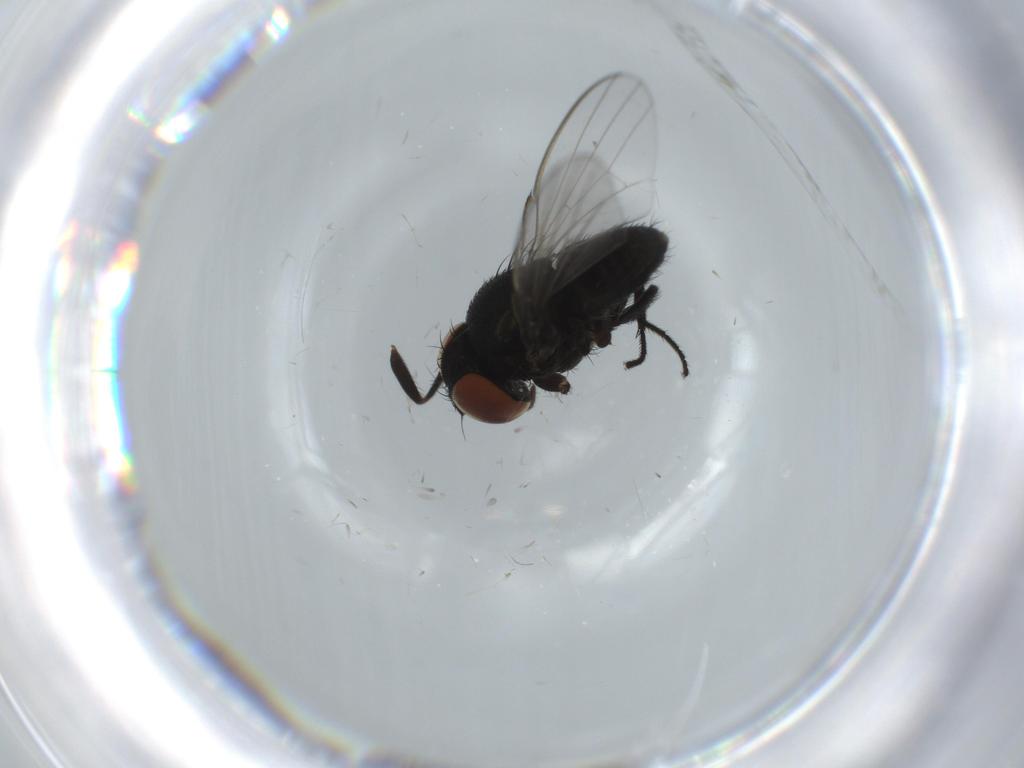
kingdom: Animalia
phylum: Arthropoda
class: Insecta
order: Diptera
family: Milichiidae
